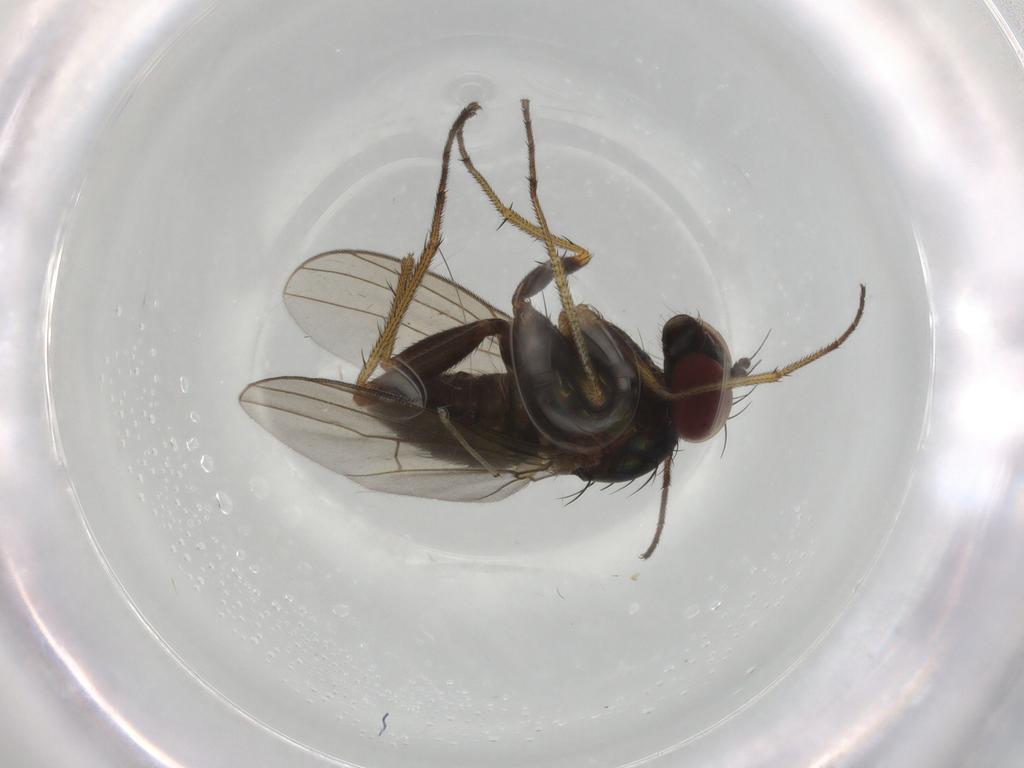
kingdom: Animalia
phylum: Arthropoda
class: Insecta
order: Diptera
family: Dolichopodidae
